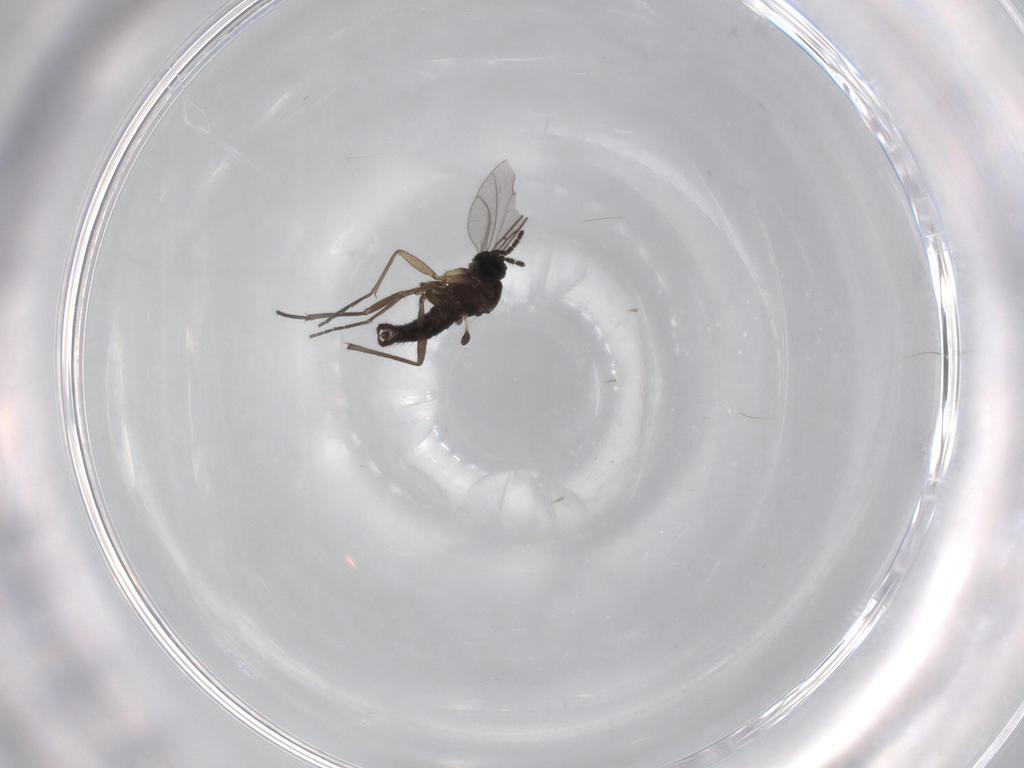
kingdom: Animalia
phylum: Arthropoda
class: Insecta
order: Diptera
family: Sciaridae
